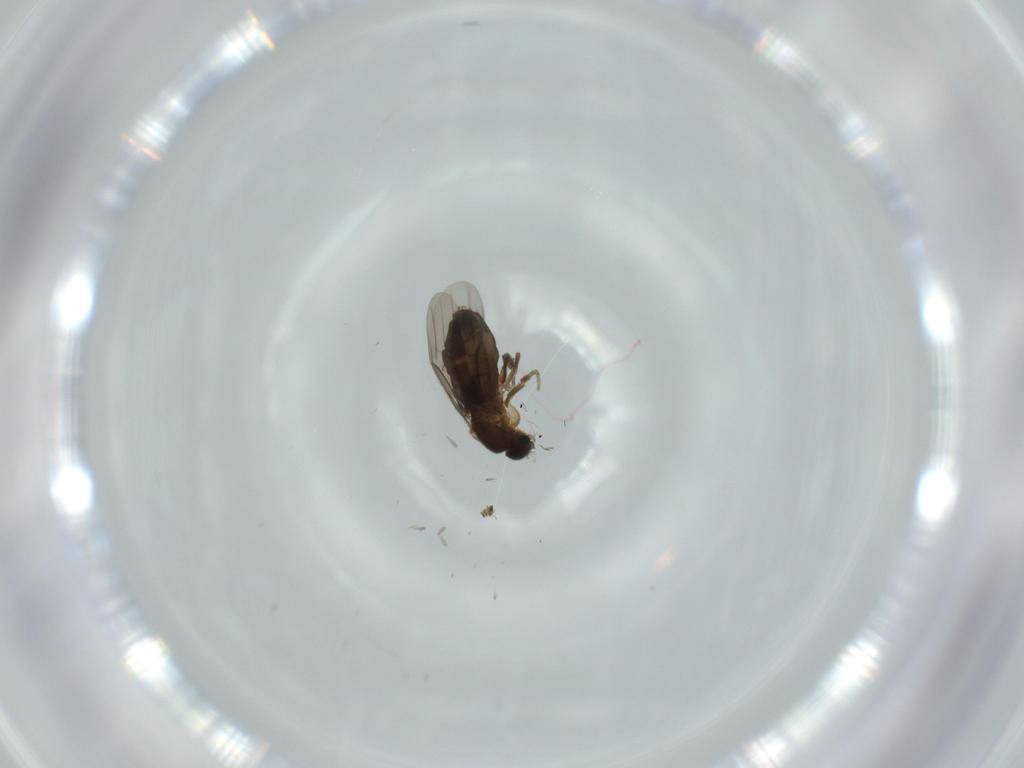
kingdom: Animalia
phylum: Arthropoda
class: Insecta
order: Diptera
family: Phoridae
